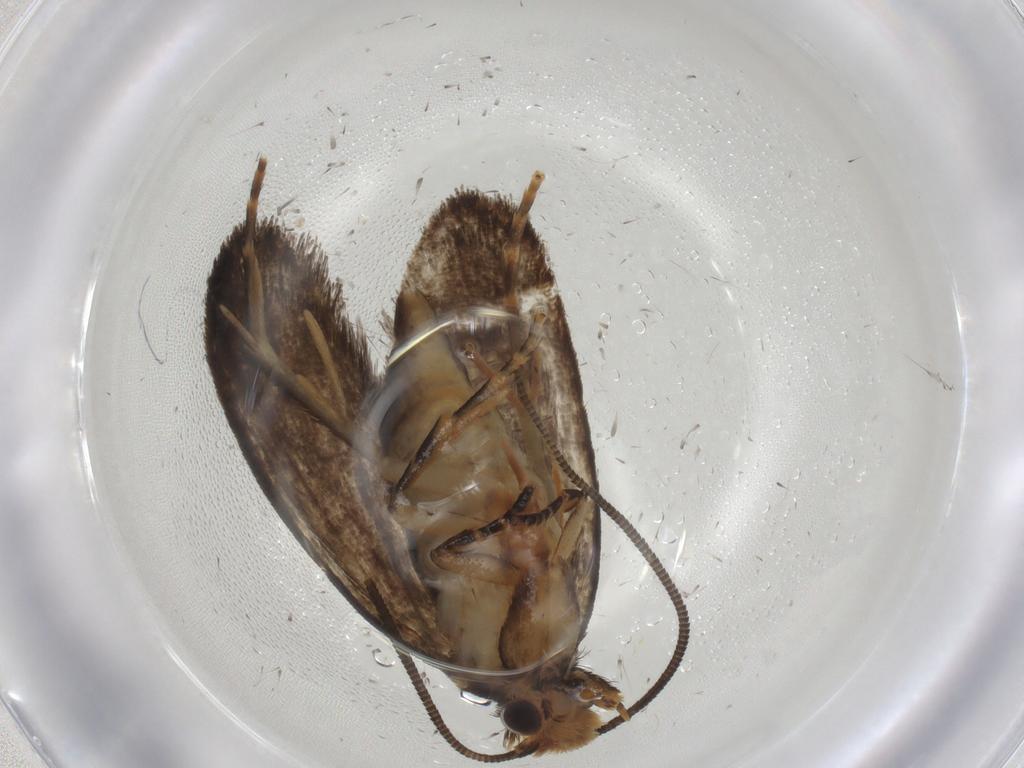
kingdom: Animalia
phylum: Arthropoda
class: Insecta
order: Lepidoptera
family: Tineidae
